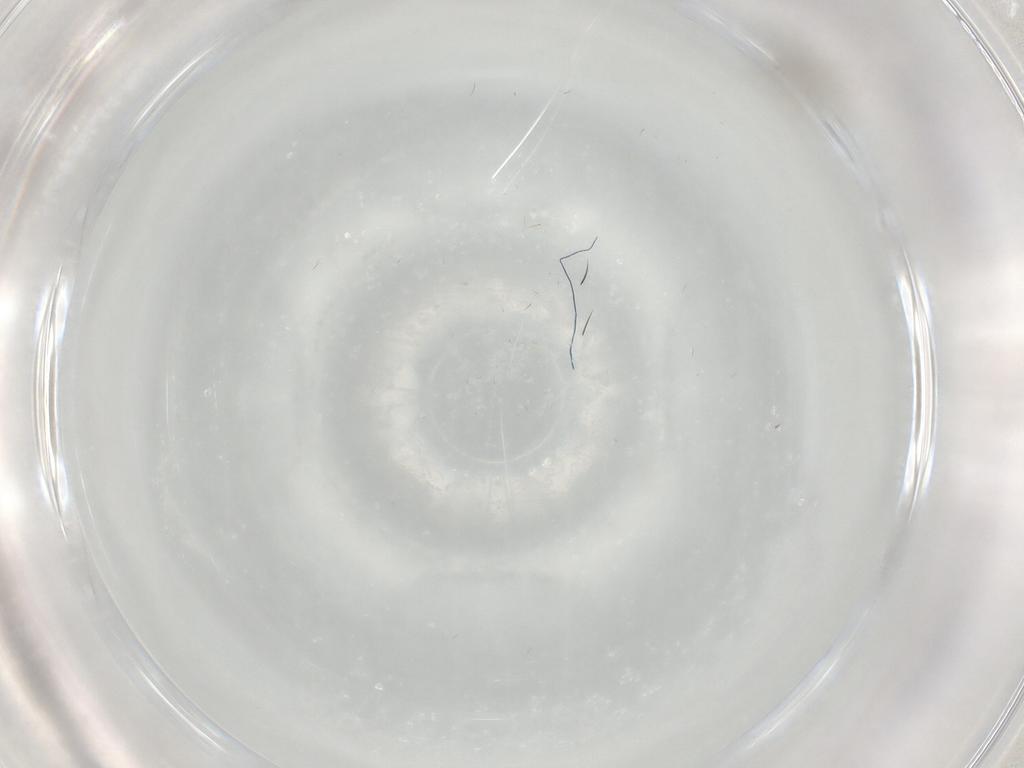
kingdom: Animalia
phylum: Arthropoda
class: Insecta
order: Diptera
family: Cecidomyiidae
